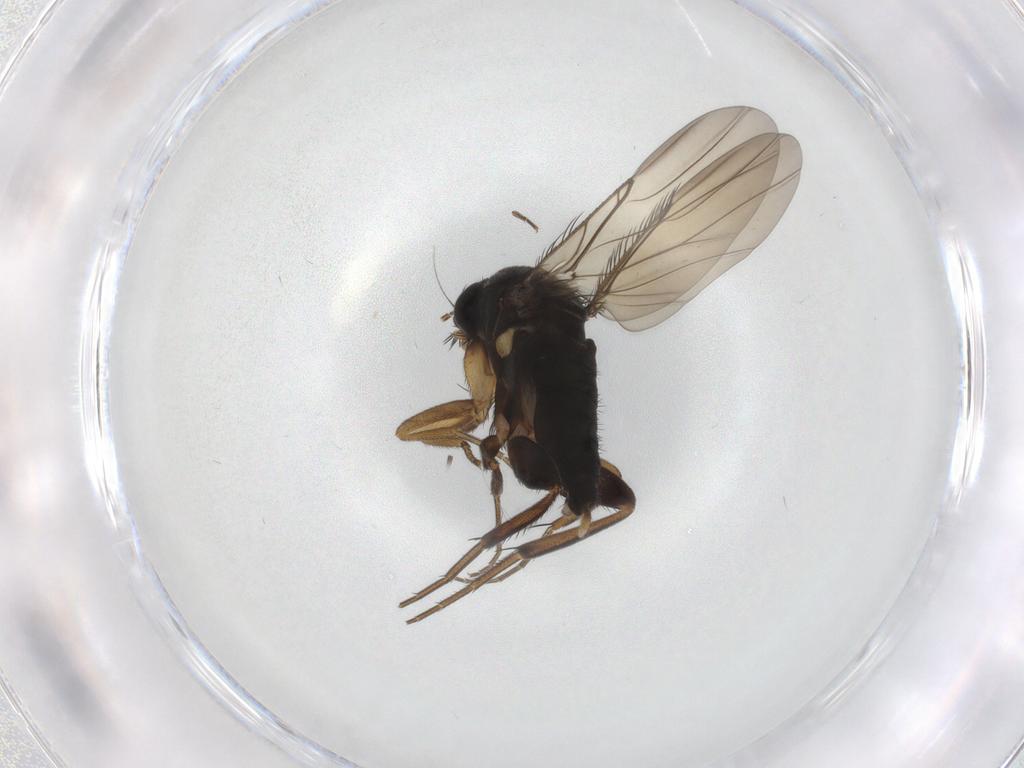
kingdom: Animalia
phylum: Arthropoda
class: Insecta
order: Diptera
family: Phoridae
